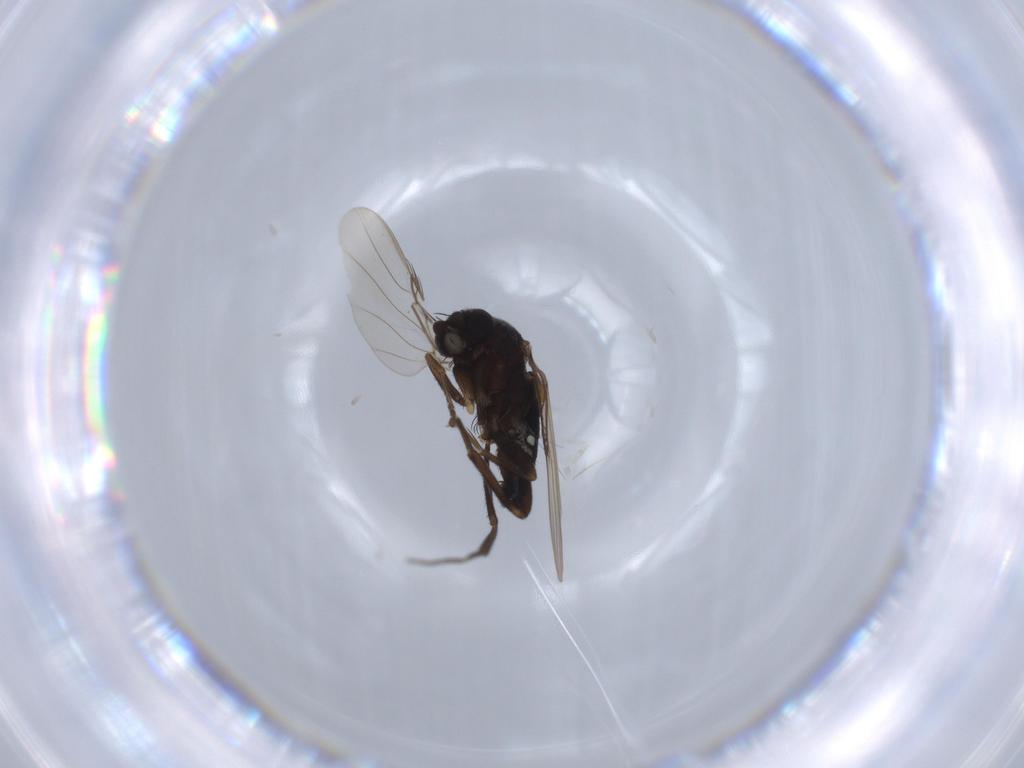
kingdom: Animalia
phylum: Arthropoda
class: Insecta
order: Diptera
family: Phoridae
